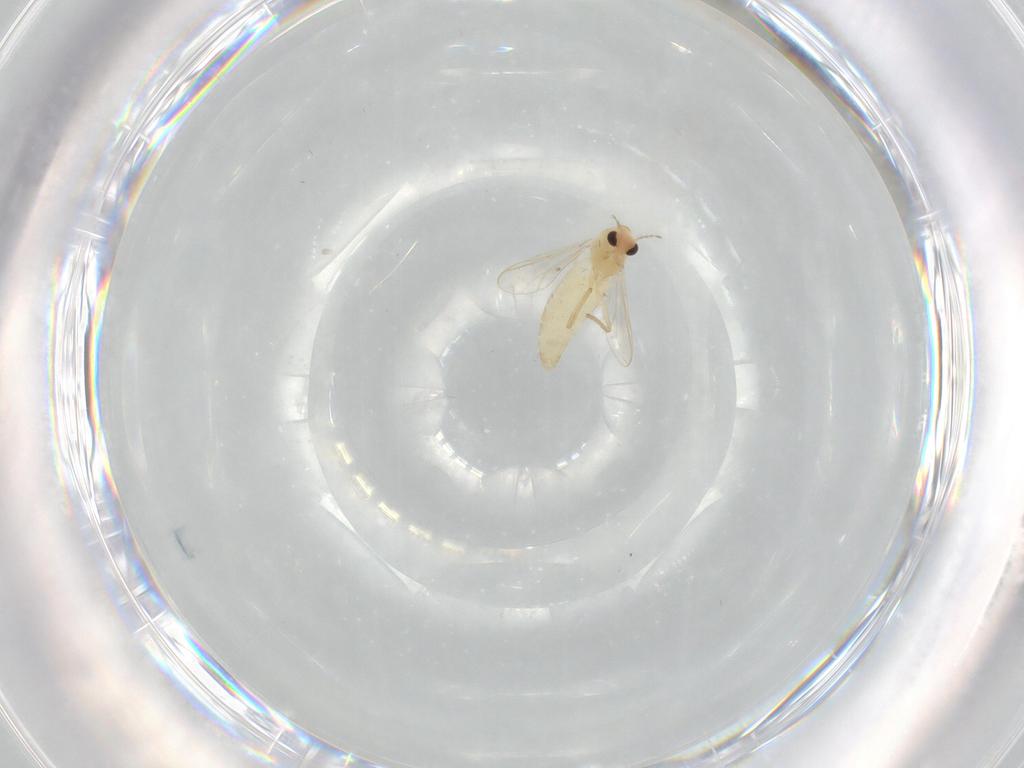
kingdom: Animalia
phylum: Arthropoda
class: Insecta
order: Diptera
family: Chironomidae
